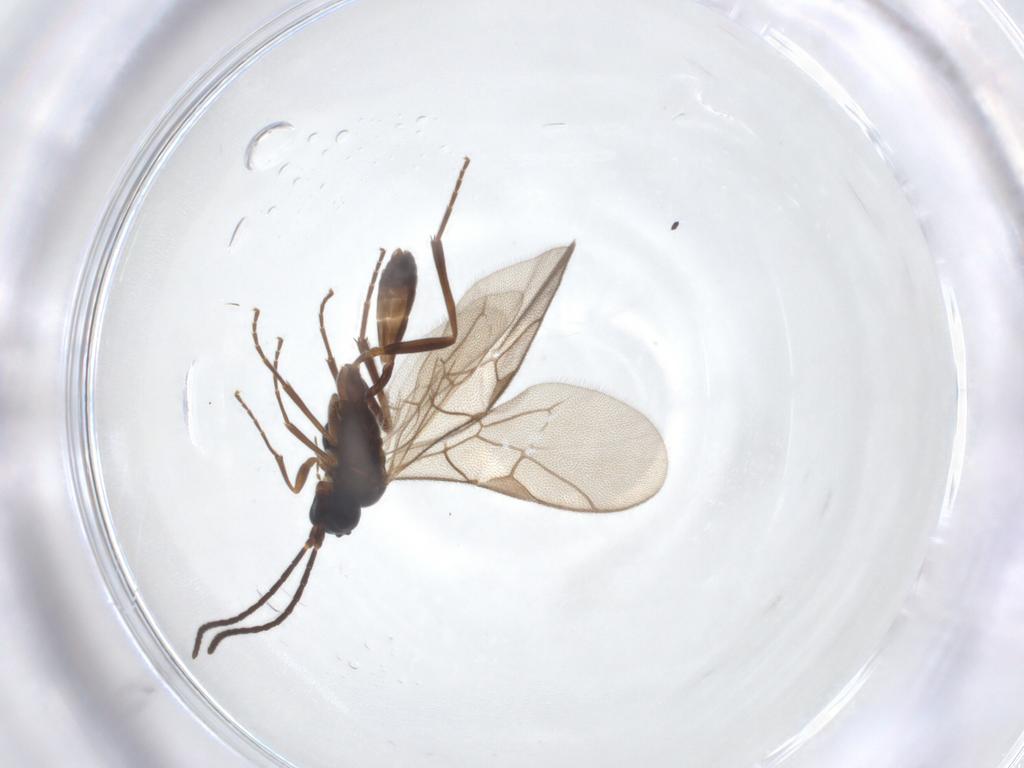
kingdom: Animalia
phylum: Arthropoda
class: Insecta
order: Hymenoptera
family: Ichneumonidae
